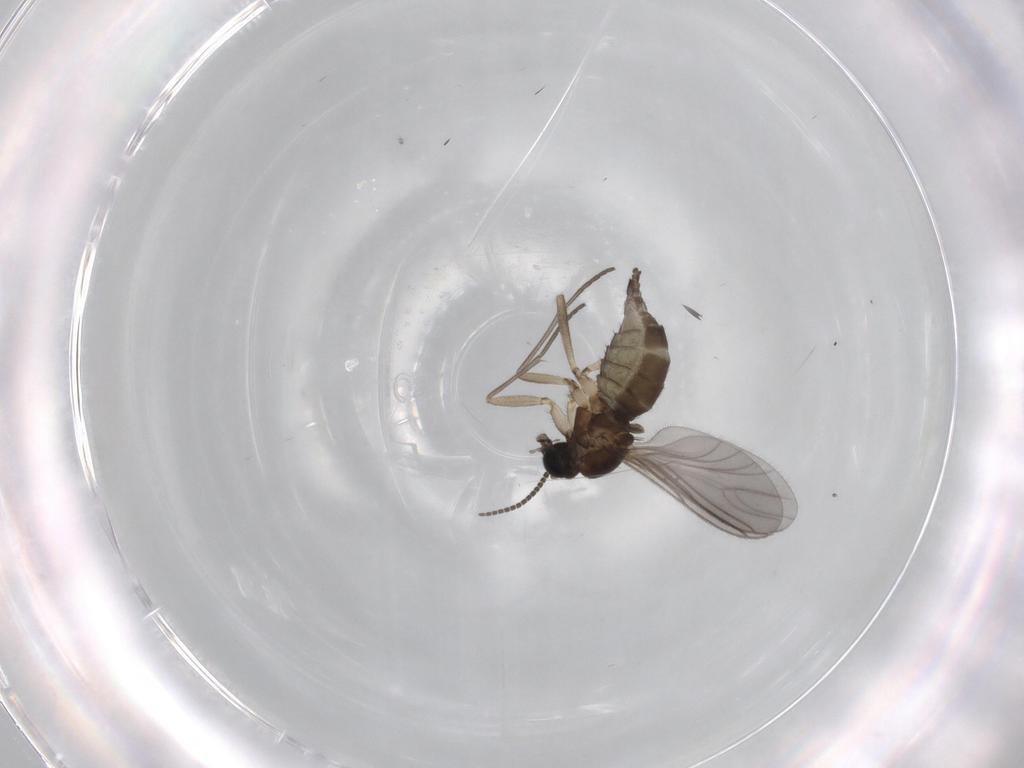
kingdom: Animalia
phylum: Arthropoda
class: Insecta
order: Diptera
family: Sciaridae
